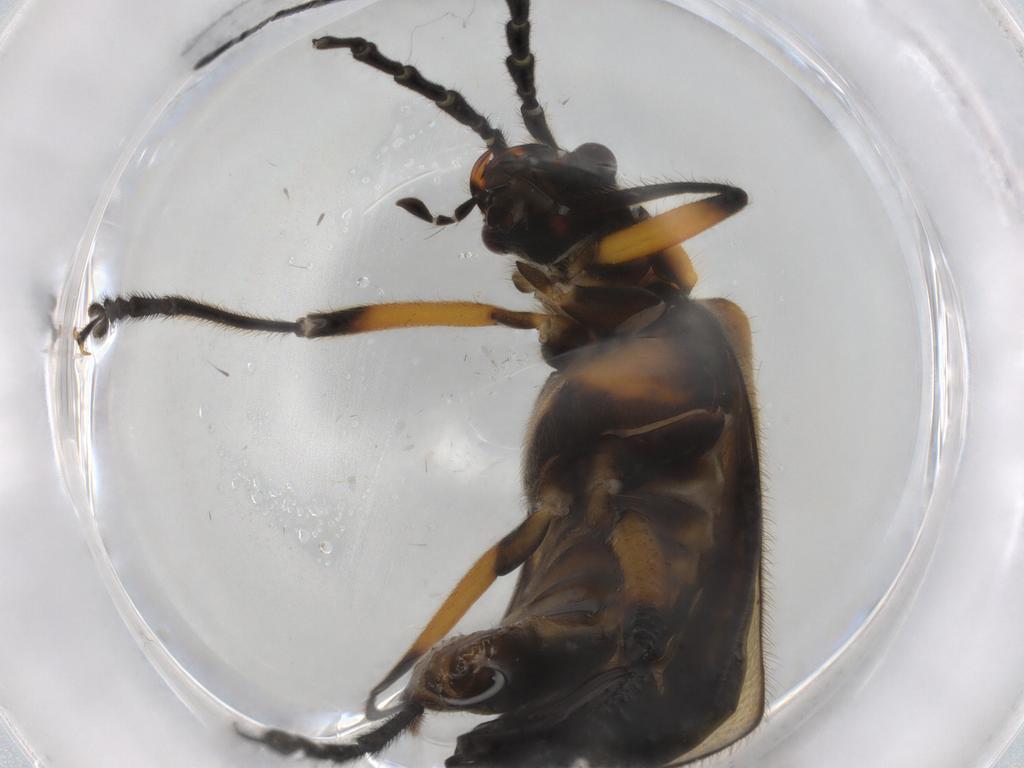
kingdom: Animalia
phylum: Arthropoda
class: Insecta
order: Coleoptera
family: Cantharidae
